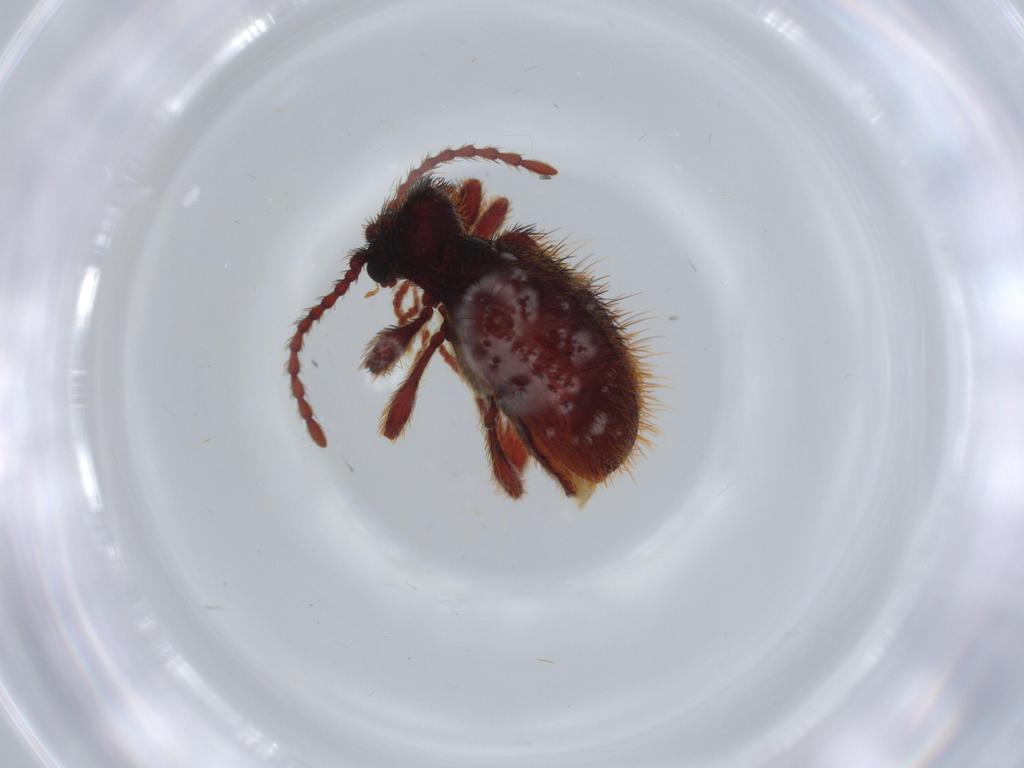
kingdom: Animalia
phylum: Arthropoda
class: Insecta
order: Coleoptera
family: Ptinidae
